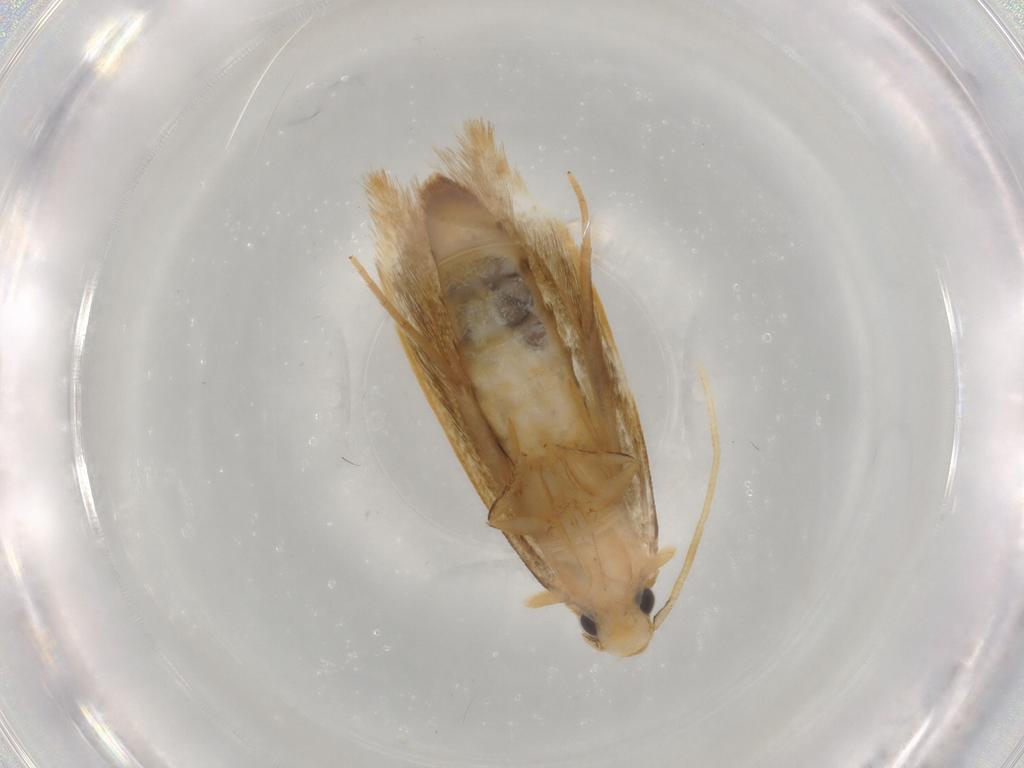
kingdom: Animalia
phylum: Arthropoda
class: Insecta
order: Lepidoptera
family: Tineidae
